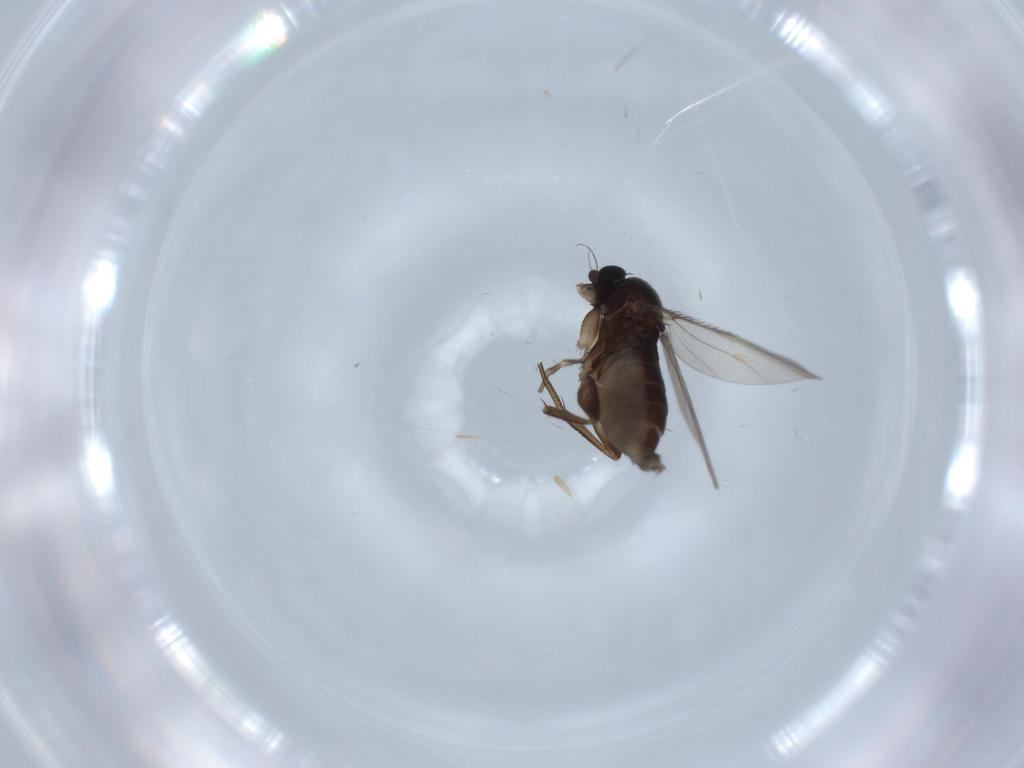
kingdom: Animalia
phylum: Arthropoda
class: Insecta
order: Diptera
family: Phoridae
